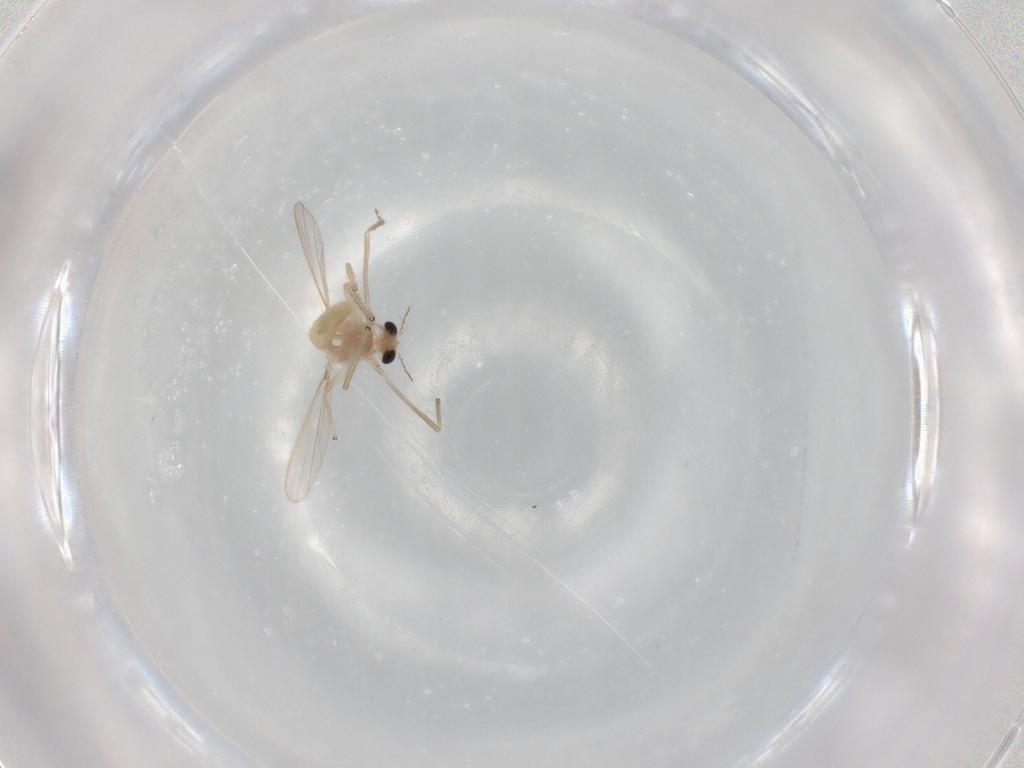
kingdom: Animalia
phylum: Arthropoda
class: Insecta
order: Diptera
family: Chironomidae
